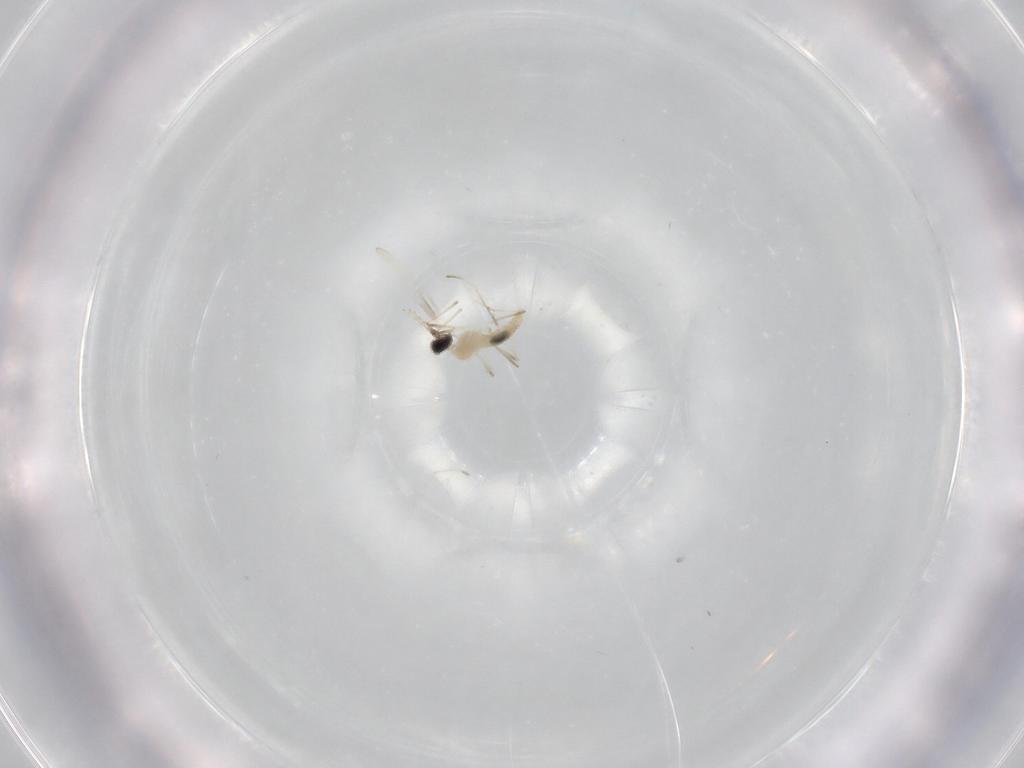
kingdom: Animalia
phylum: Arthropoda
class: Insecta
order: Diptera
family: Cecidomyiidae
